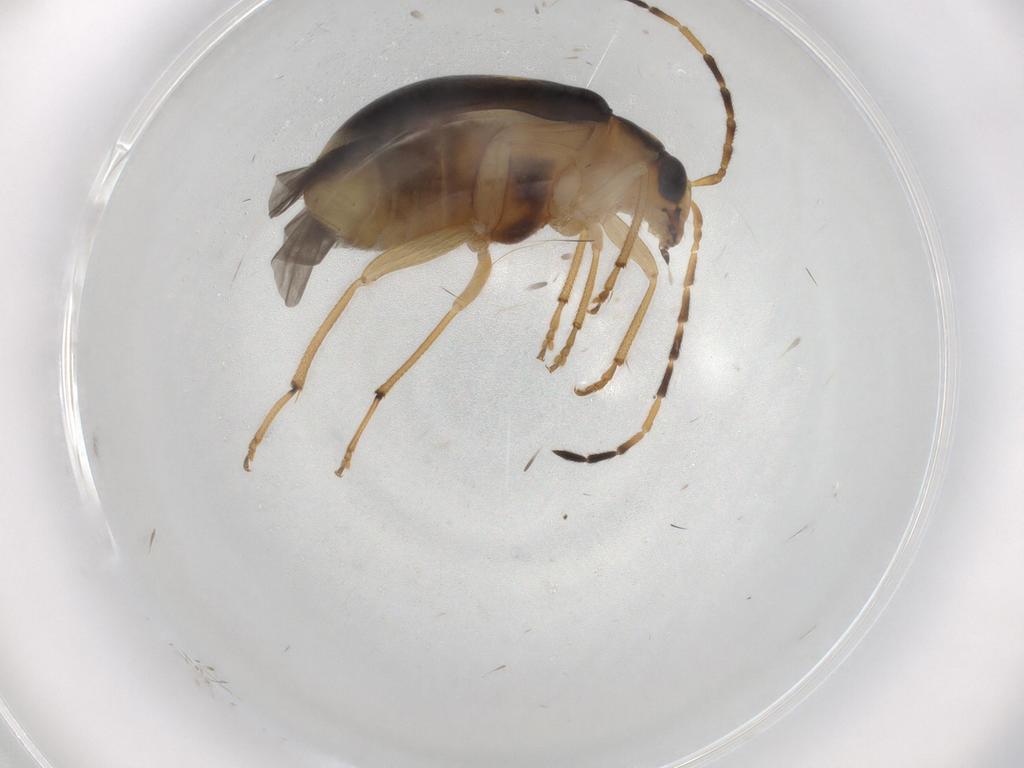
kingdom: Animalia
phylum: Arthropoda
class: Insecta
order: Coleoptera
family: Chrysomelidae
